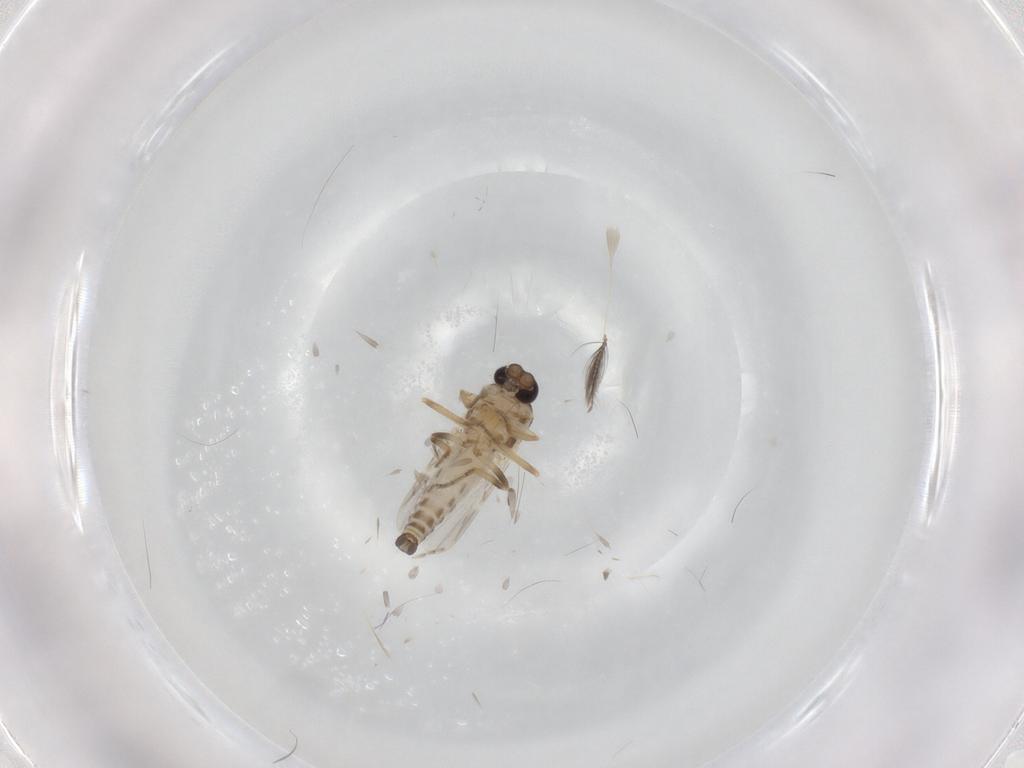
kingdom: Animalia
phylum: Arthropoda
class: Insecta
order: Diptera
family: Ceratopogonidae
